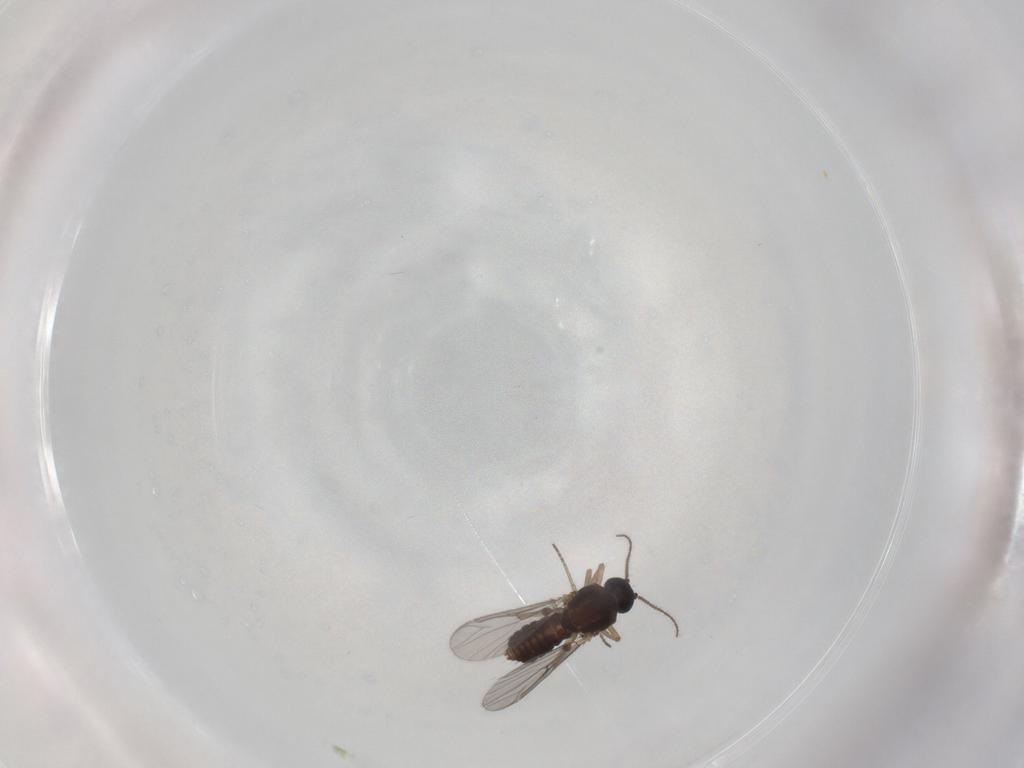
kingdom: Animalia
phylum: Arthropoda
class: Insecta
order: Diptera
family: Ceratopogonidae
